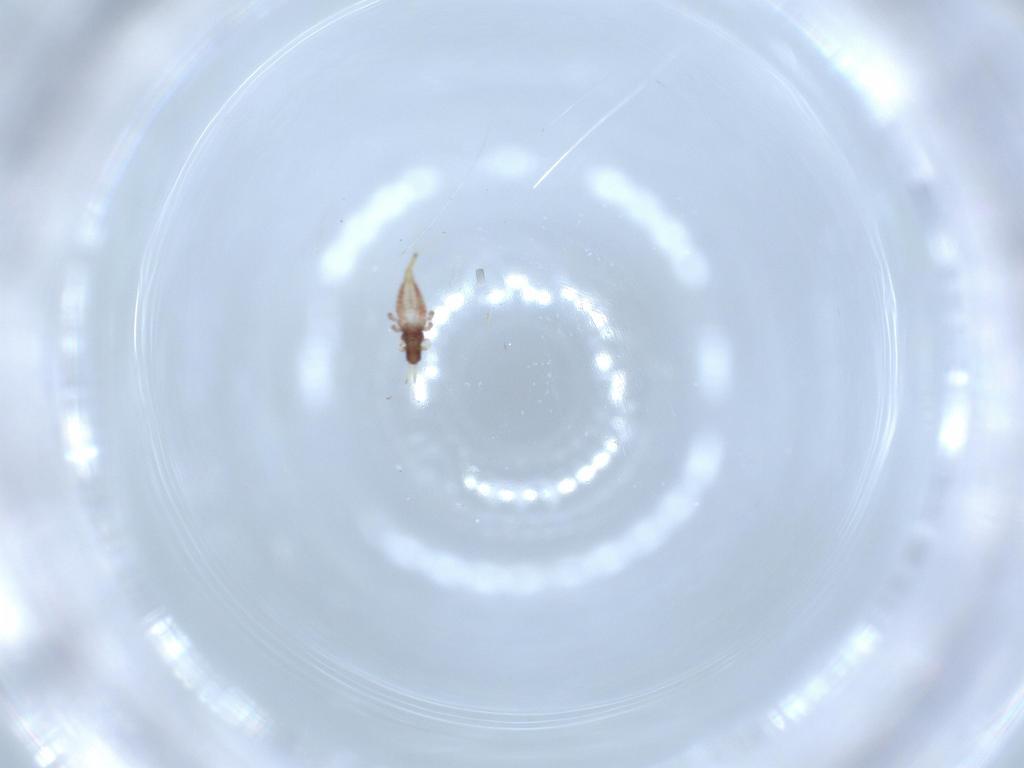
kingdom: Animalia
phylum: Arthropoda
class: Insecta
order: Thysanoptera
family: Phlaeothripidae
